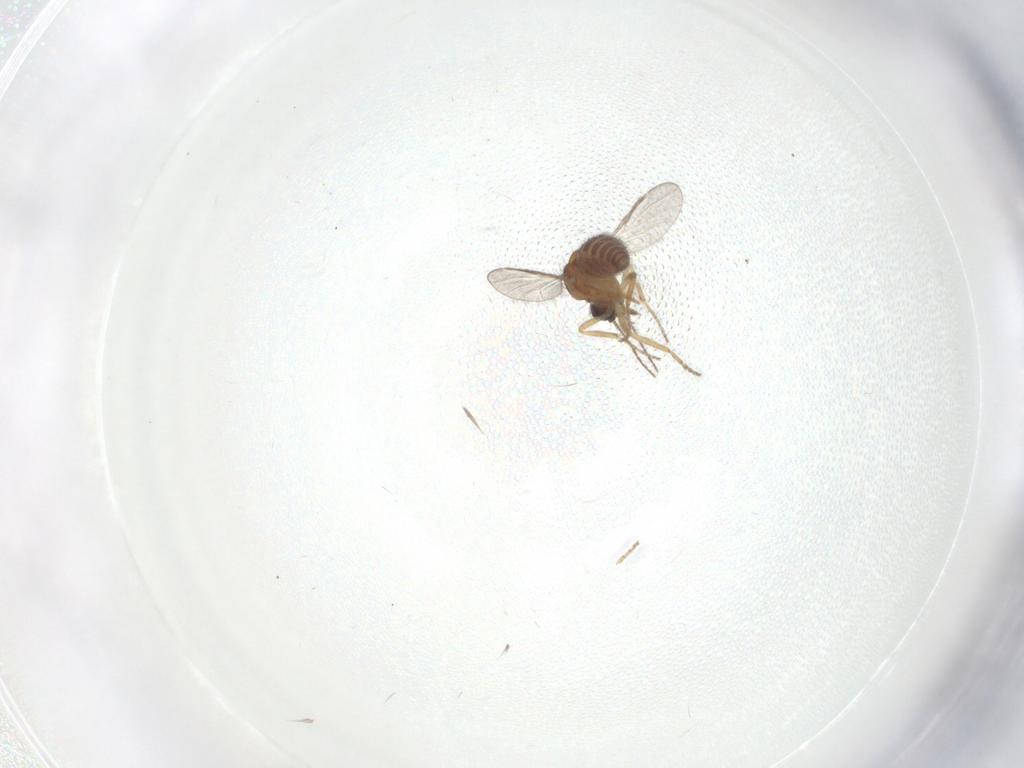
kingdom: Animalia
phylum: Arthropoda
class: Insecta
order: Diptera
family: Ceratopogonidae
